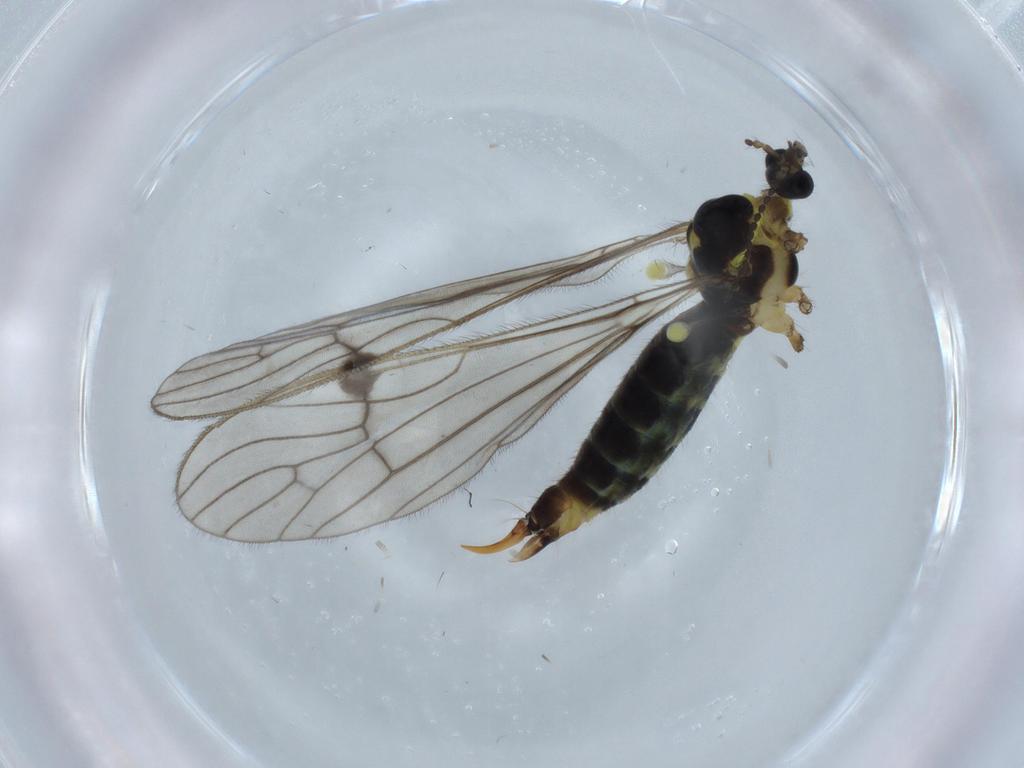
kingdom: Animalia
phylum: Arthropoda
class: Insecta
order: Diptera
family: Limoniidae
